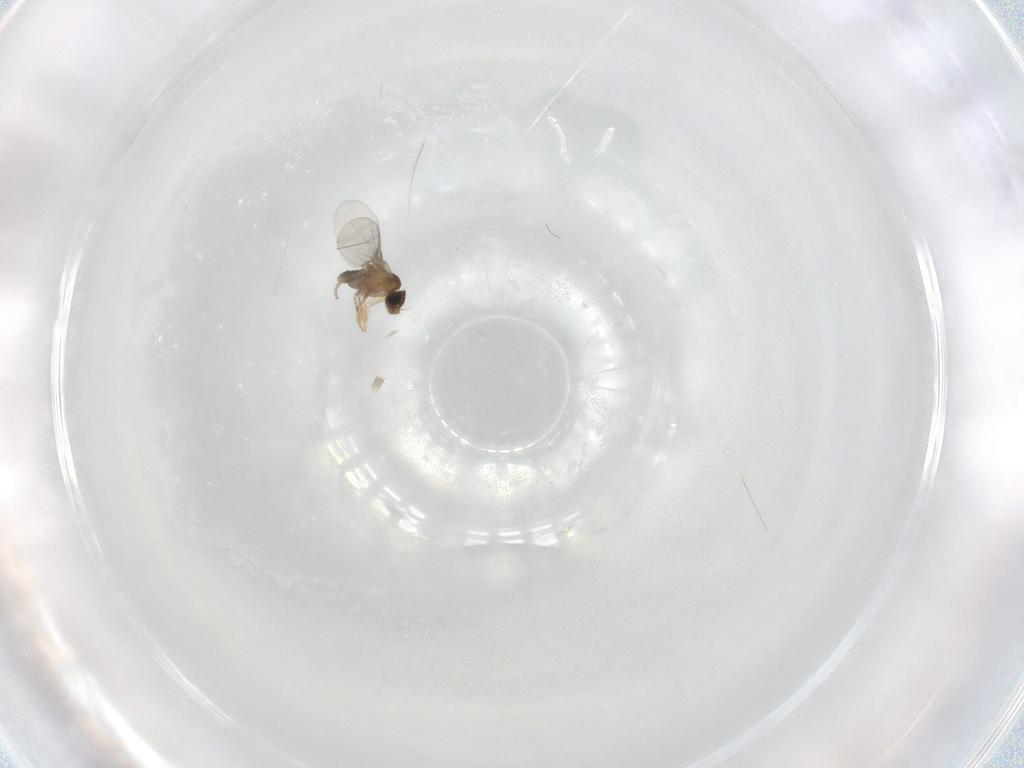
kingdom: Animalia
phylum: Arthropoda
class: Insecta
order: Diptera
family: Phoridae
